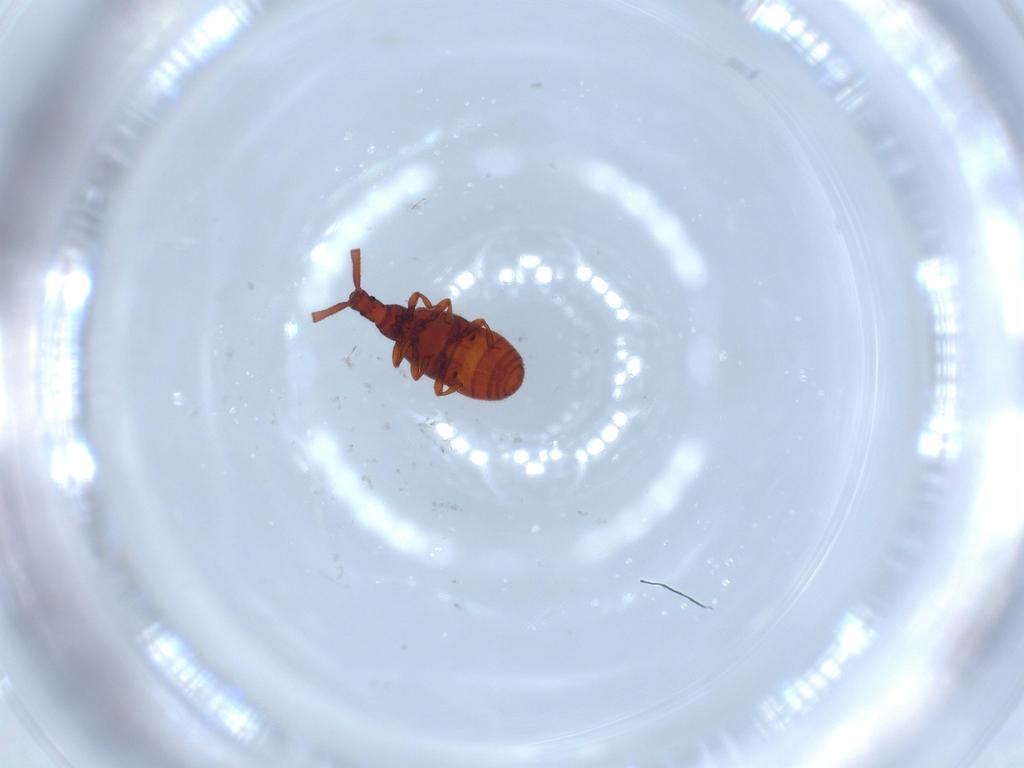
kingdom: Animalia
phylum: Arthropoda
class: Insecta
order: Coleoptera
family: Staphylinidae
